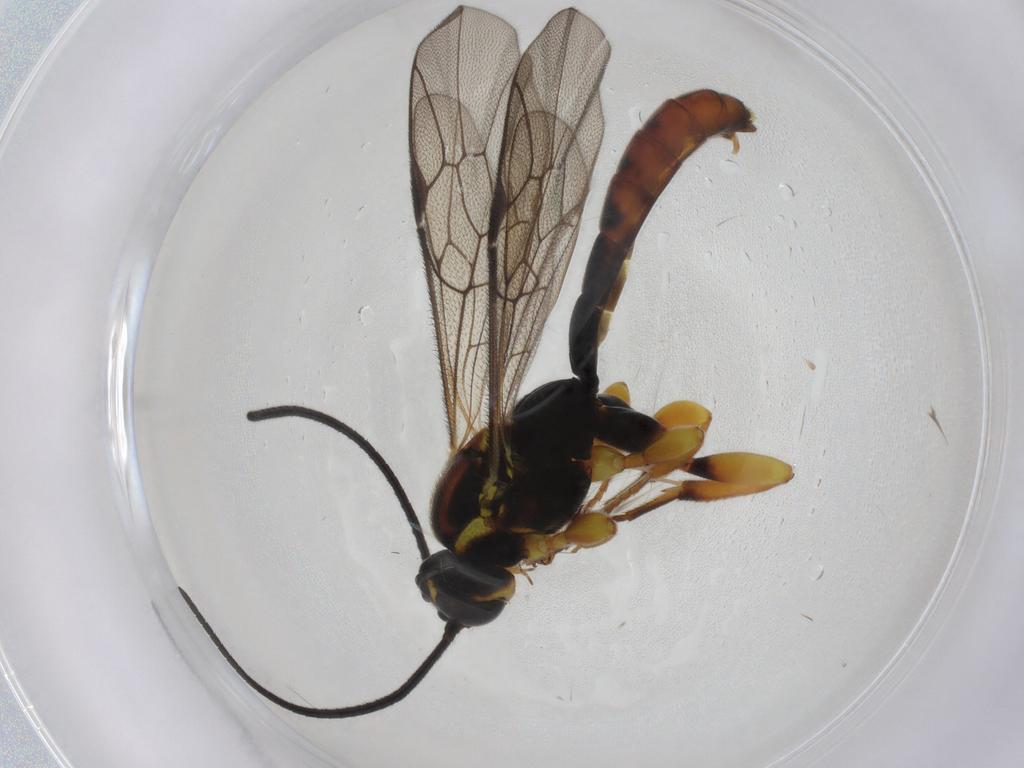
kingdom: Animalia
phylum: Arthropoda
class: Insecta
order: Hymenoptera
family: Ichneumonidae
